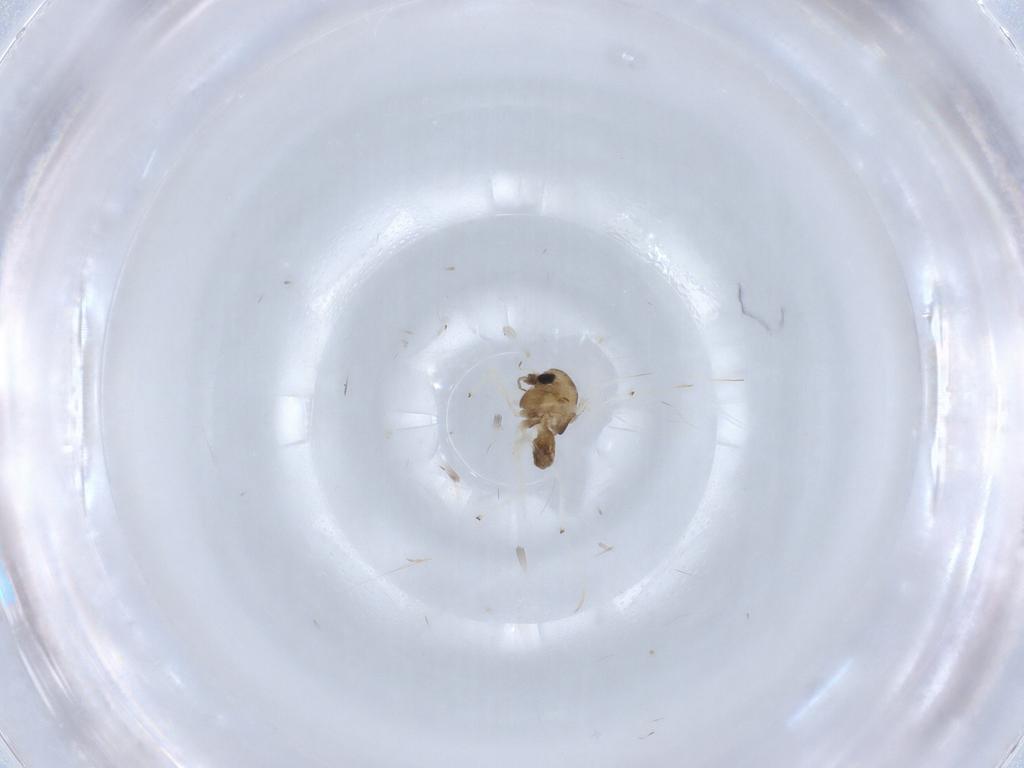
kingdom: Animalia
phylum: Arthropoda
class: Insecta
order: Diptera
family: Chironomidae
